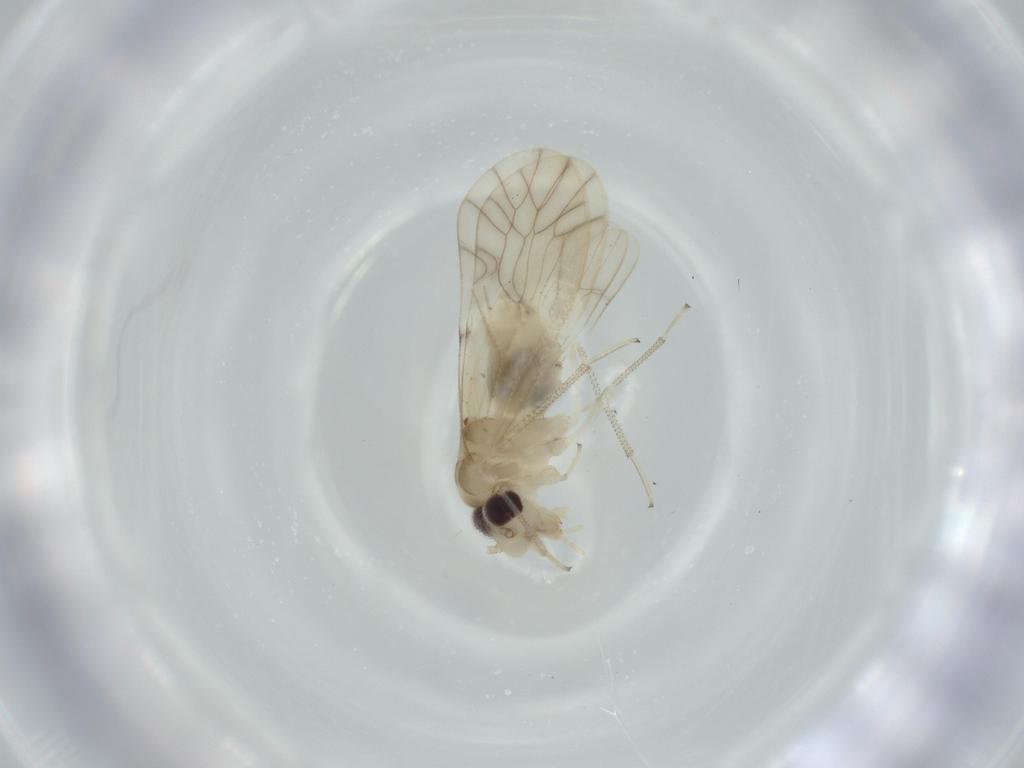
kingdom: Animalia
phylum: Arthropoda
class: Insecta
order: Psocodea
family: Caeciliusidae
